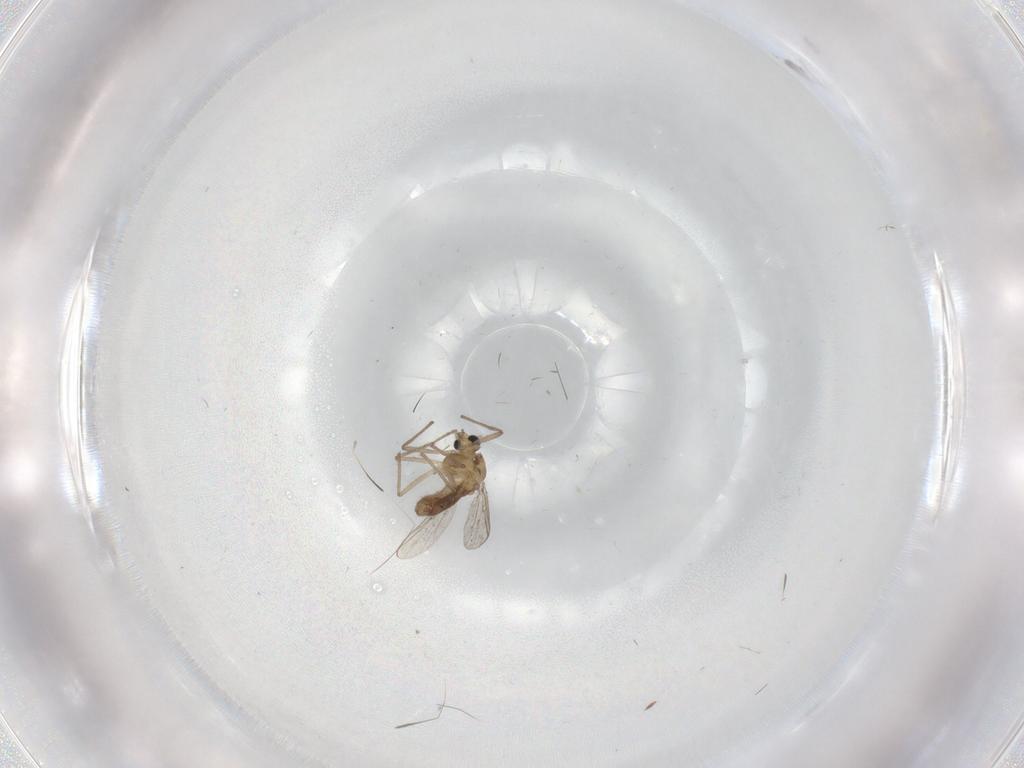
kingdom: Animalia
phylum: Arthropoda
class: Insecta
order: Diptera
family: Chironomidae
